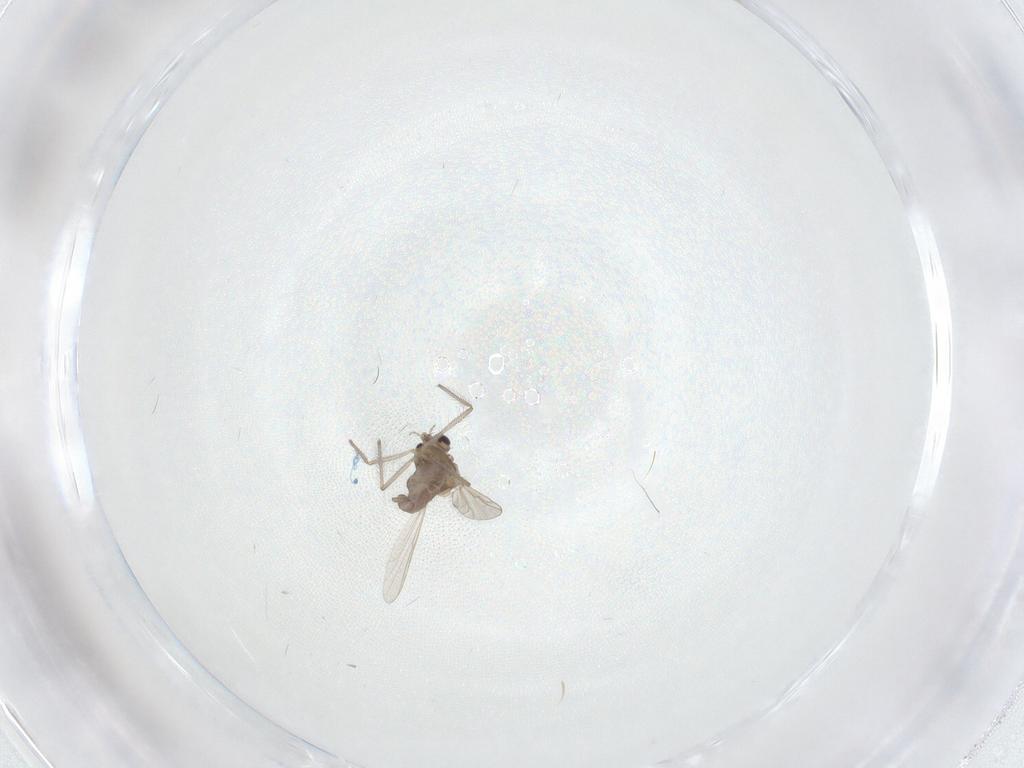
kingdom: Animalia
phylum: Arthropoda
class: Insecta
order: Diptera
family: Chironomidae
